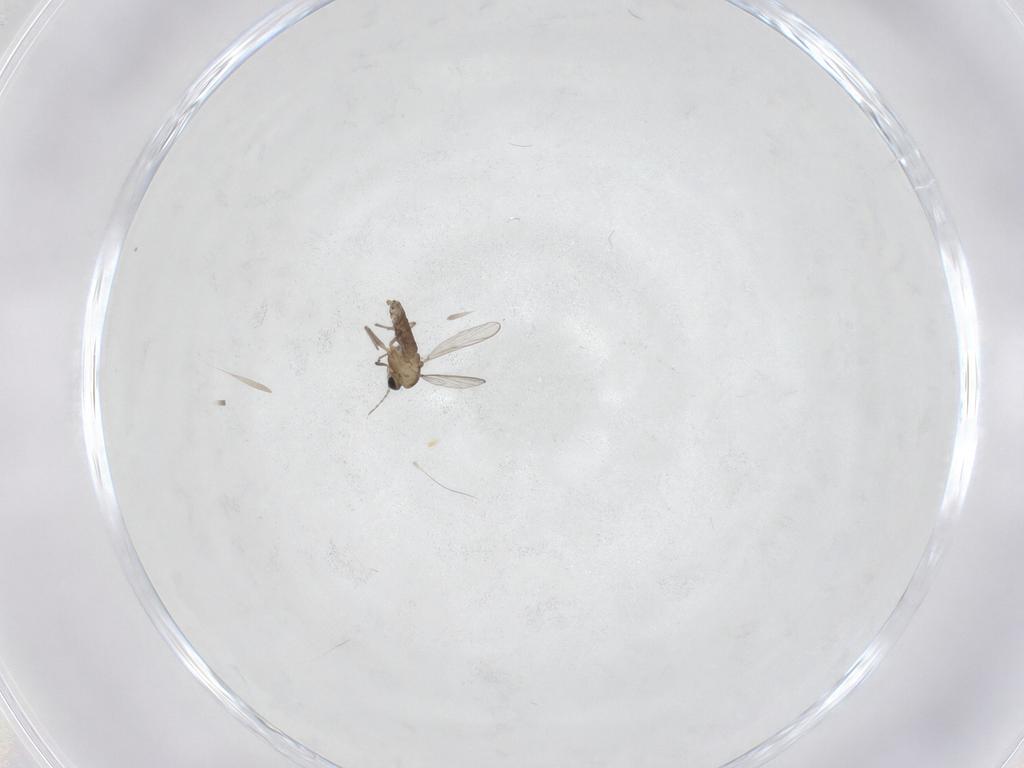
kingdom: Animalia
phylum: Arthropoda
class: Insecta
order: Diptera
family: Chironomidae
